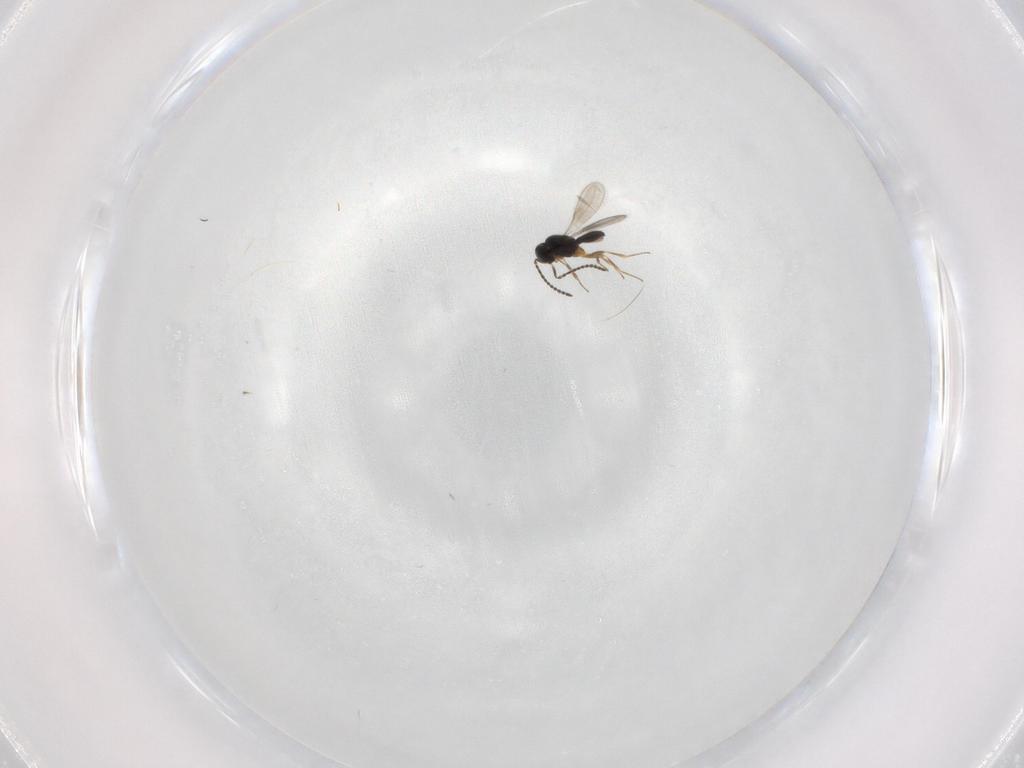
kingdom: Animalia
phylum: Arthropoda
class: Insecta
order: Hymenoptera
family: Scelionidae
